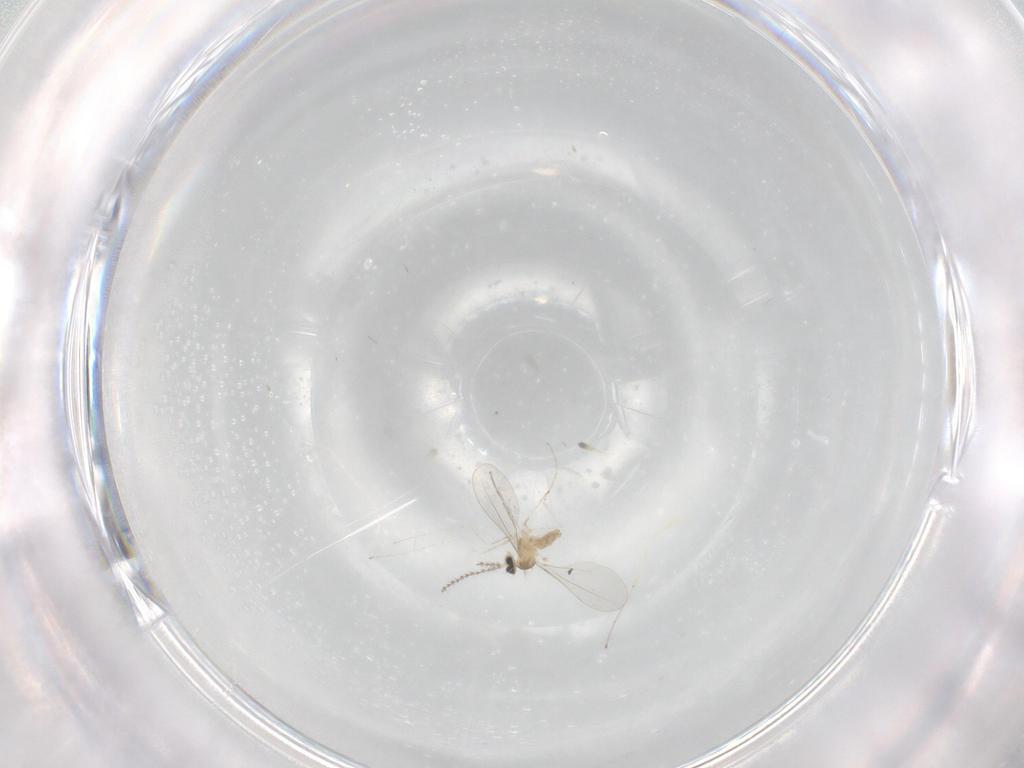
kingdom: Animalia
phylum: Arthropoda
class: Insecta
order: Diptera
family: Cecidomyiidae
